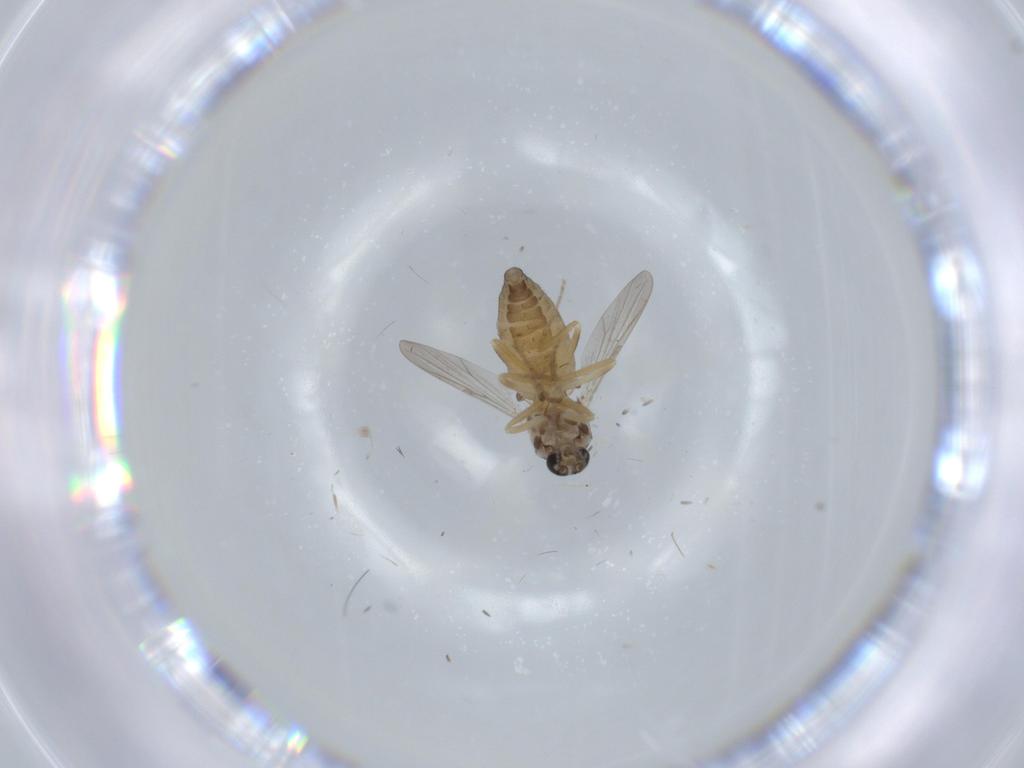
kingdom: Animalia
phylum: Arthropoda
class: Insecta
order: Diptera
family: Ceratopogonidae
